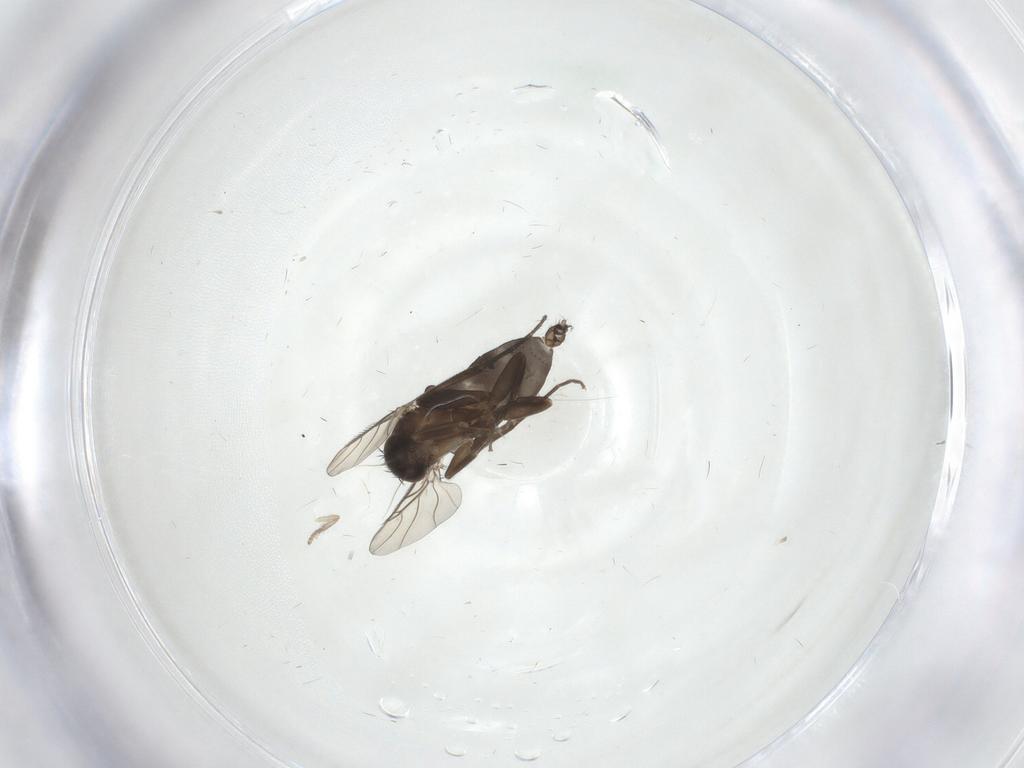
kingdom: Animalia
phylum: Arthropoda
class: Insecta
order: Diptera
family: Phoridae
